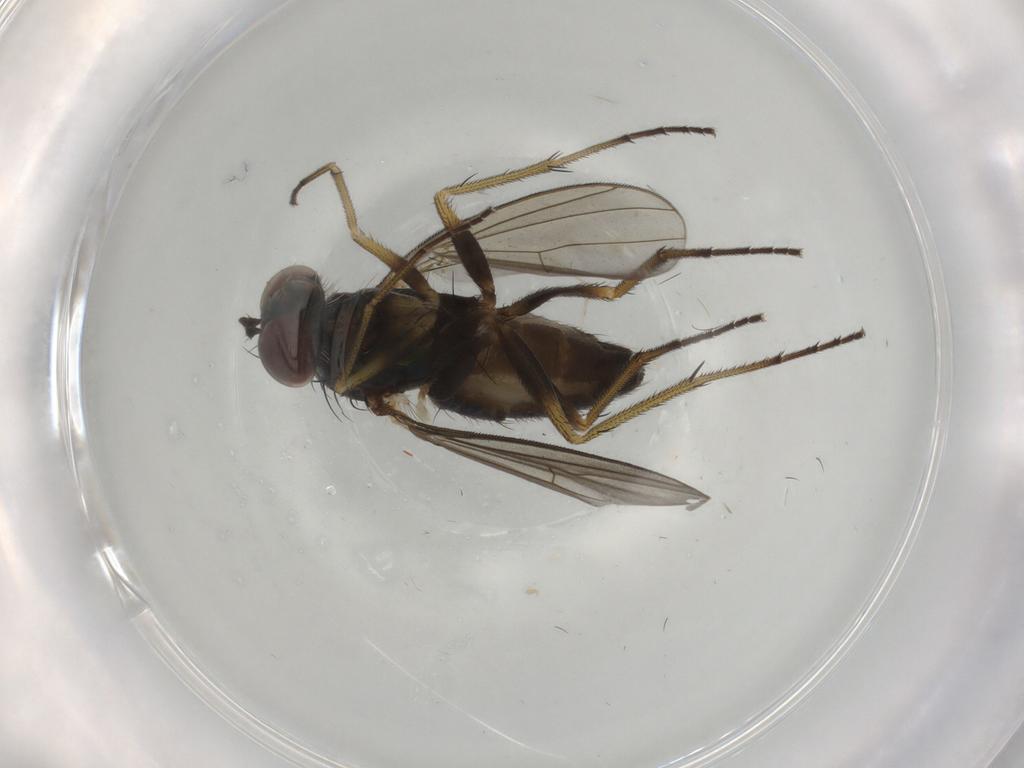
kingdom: Animalia
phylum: Arthropoda
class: Insecta
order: Diptera
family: Dolichopodidae
